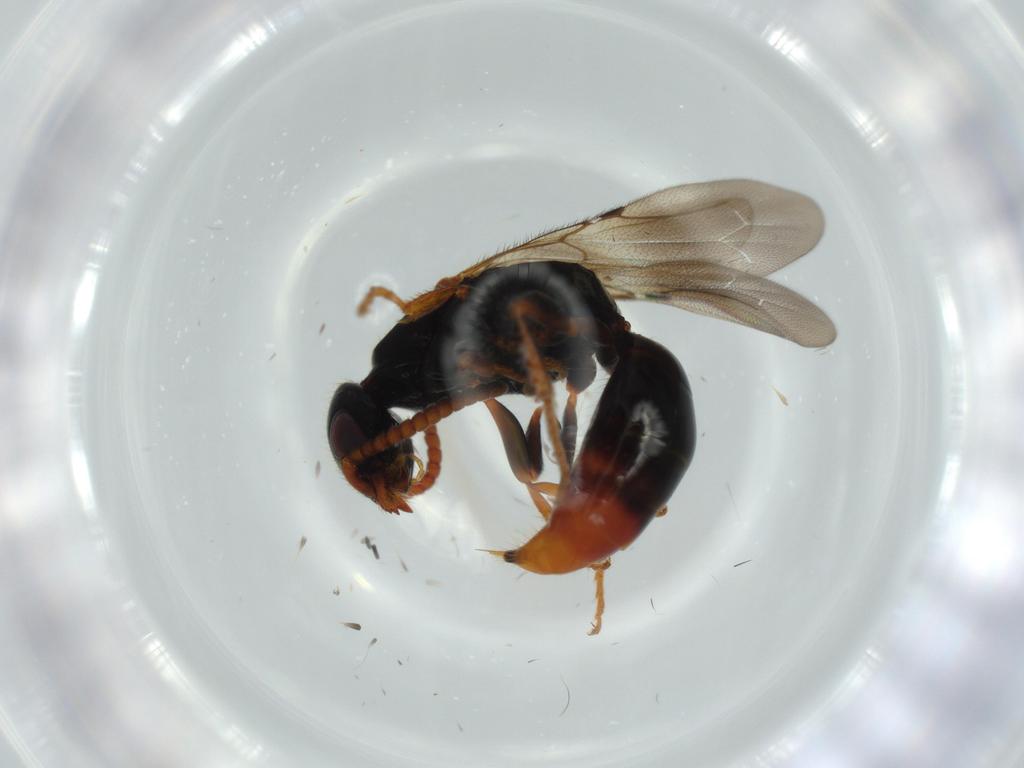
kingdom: Animalia
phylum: Arthropoda
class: Insecta
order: Hymenoptera
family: Bethylidae
